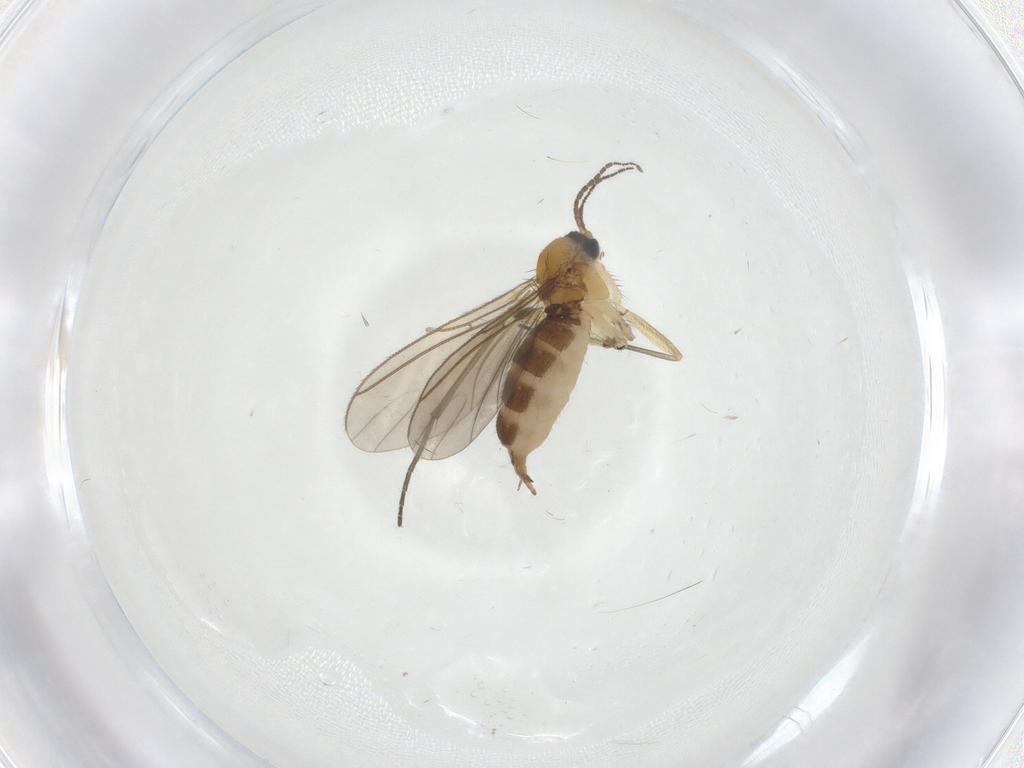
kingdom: Animalia
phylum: Arthropoda
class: Insecta
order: Diptera
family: Sciaridae
